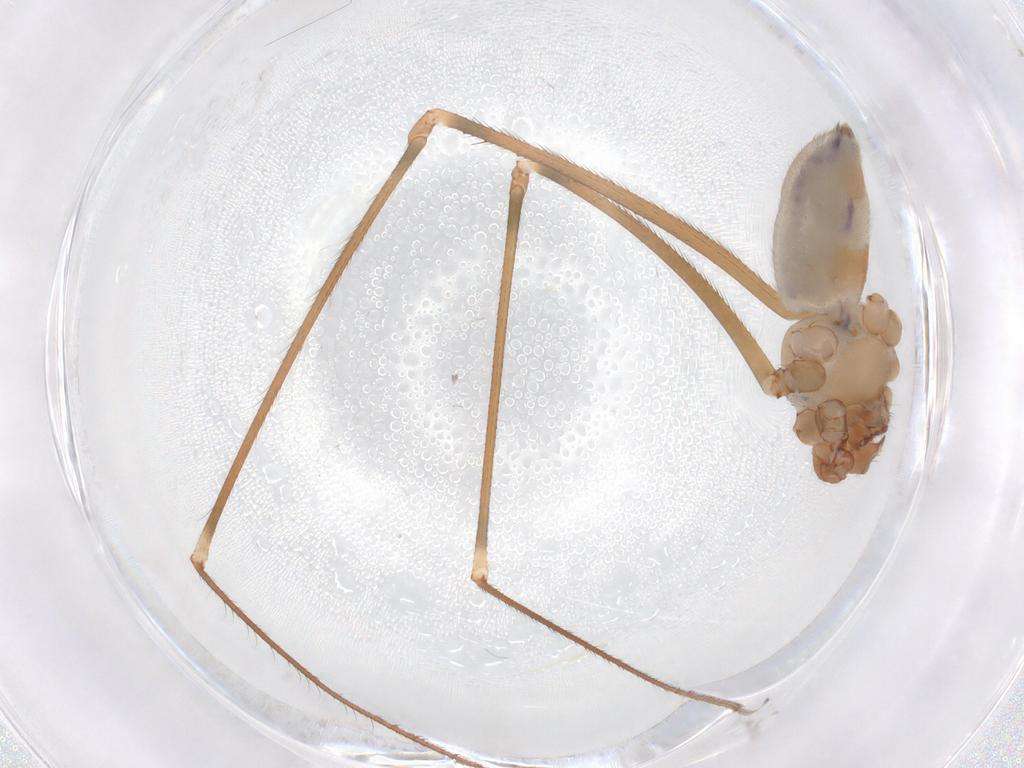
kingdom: Animalia
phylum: Arthropoda
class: Arachnida
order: Araneae
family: Pholcidae
